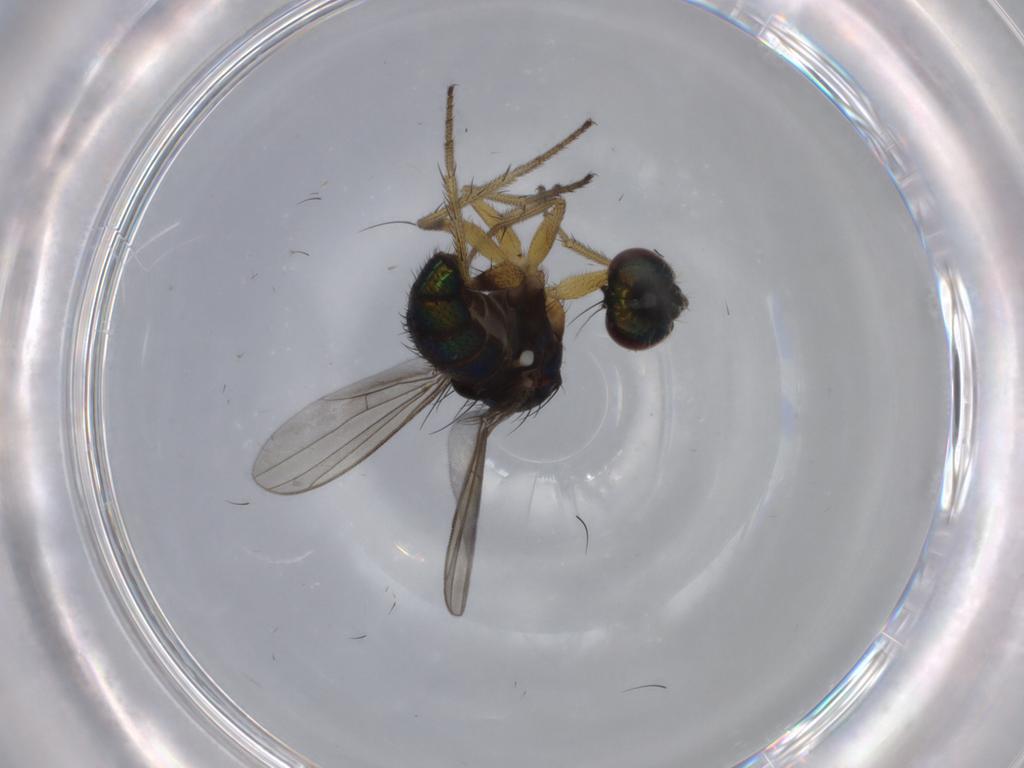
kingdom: Animalia
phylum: Arthropoda
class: Insecta
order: Diptera
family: Dolichopodidae
